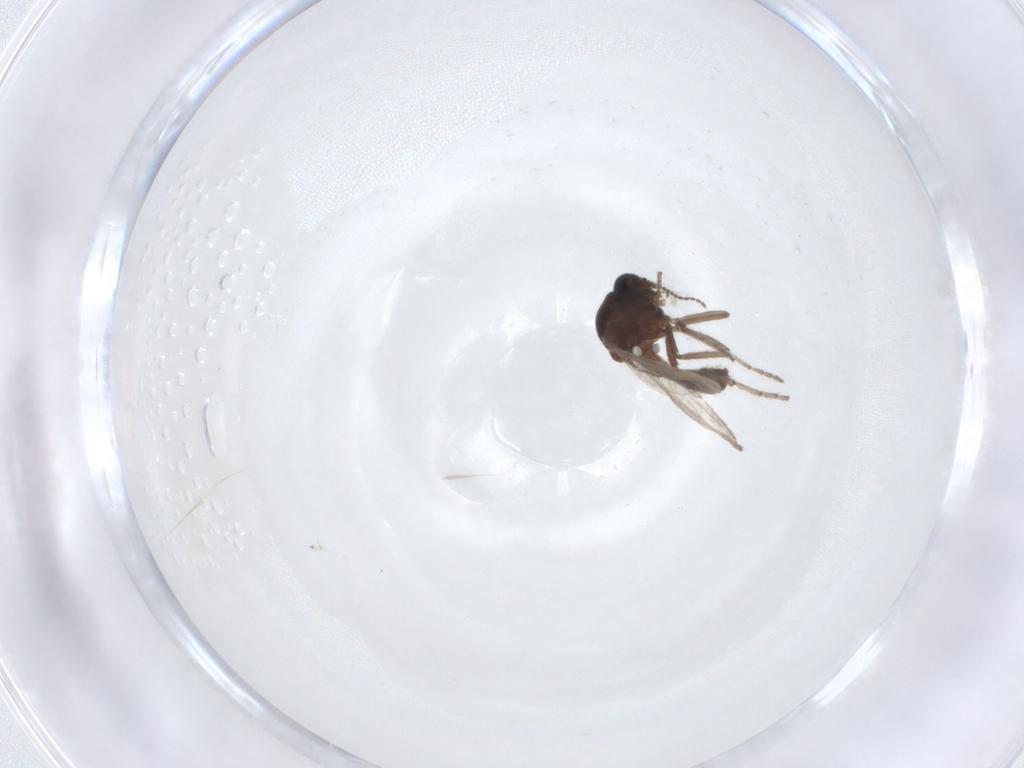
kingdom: Animalia
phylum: Arthropoda
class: Insecta
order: Diptera
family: Ceratopogonidae
